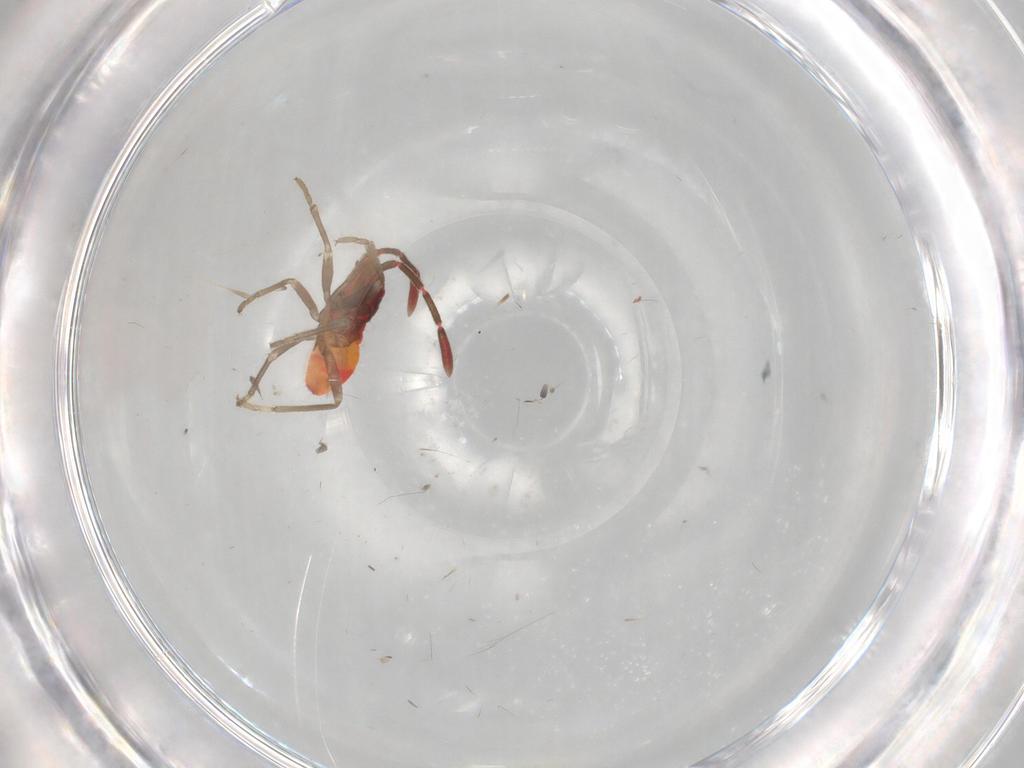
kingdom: Animalia
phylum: Arthropoda
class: Insecta
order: Hemiptera
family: Rhyparochromidae
